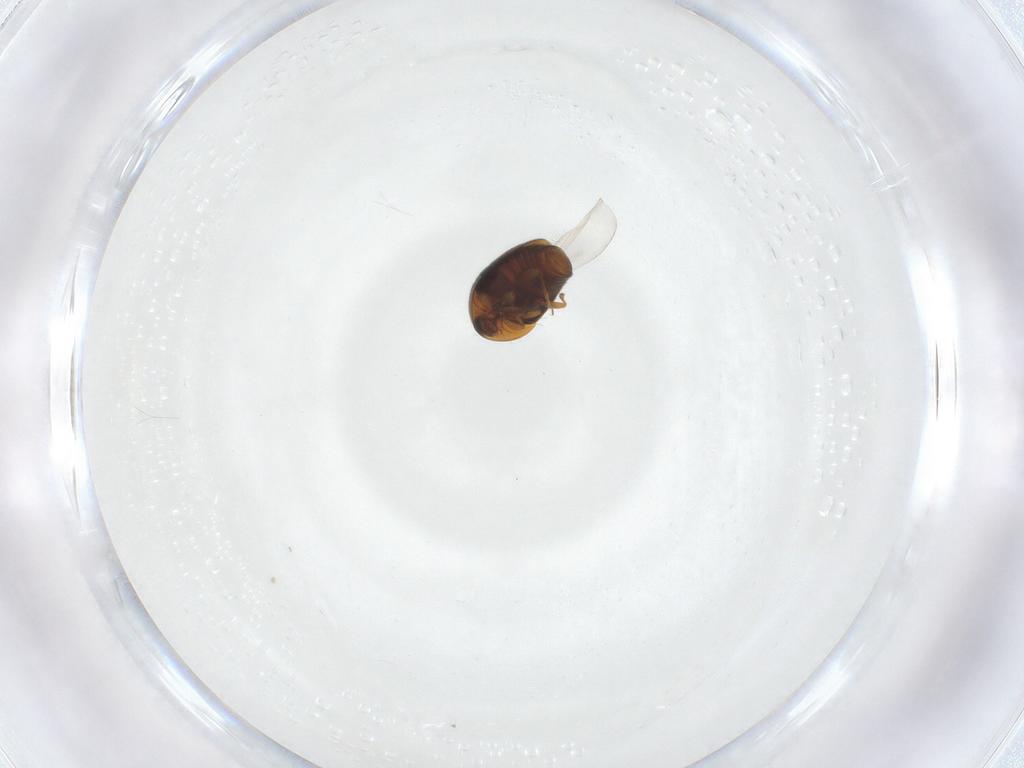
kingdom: Animalia
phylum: Arthropoda
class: Insecta
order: Coleoptera
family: Corylophidae
